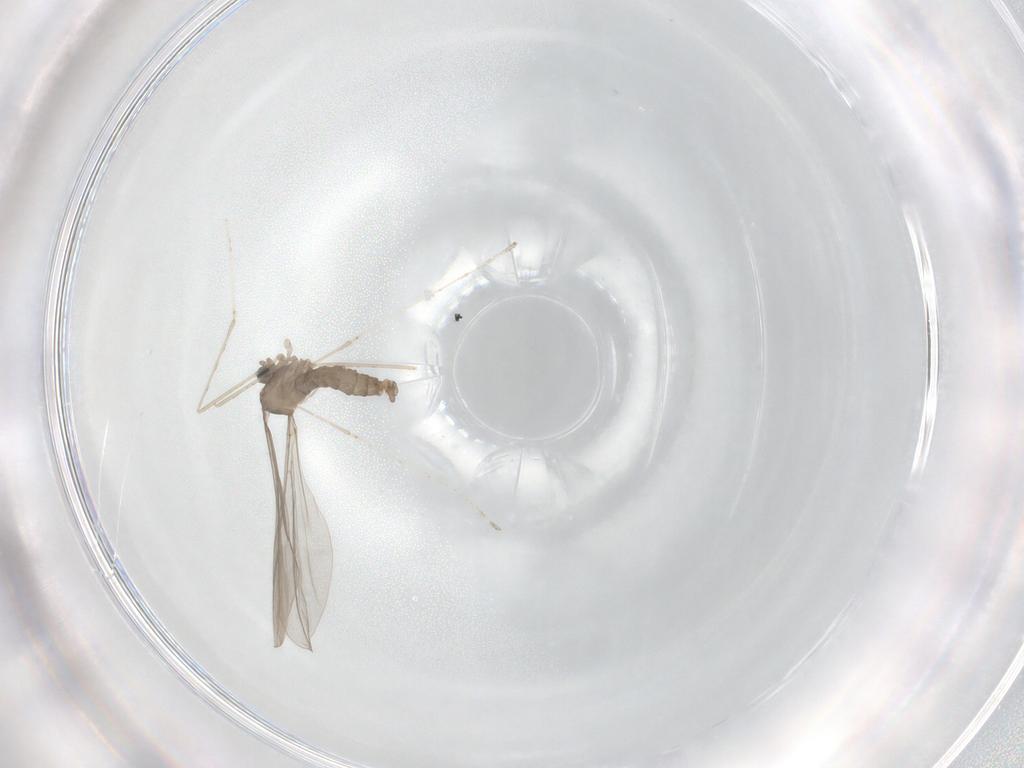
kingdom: Animalia
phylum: Arthropoda
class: Insecta
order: Diptera
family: Cecidomyiidae
